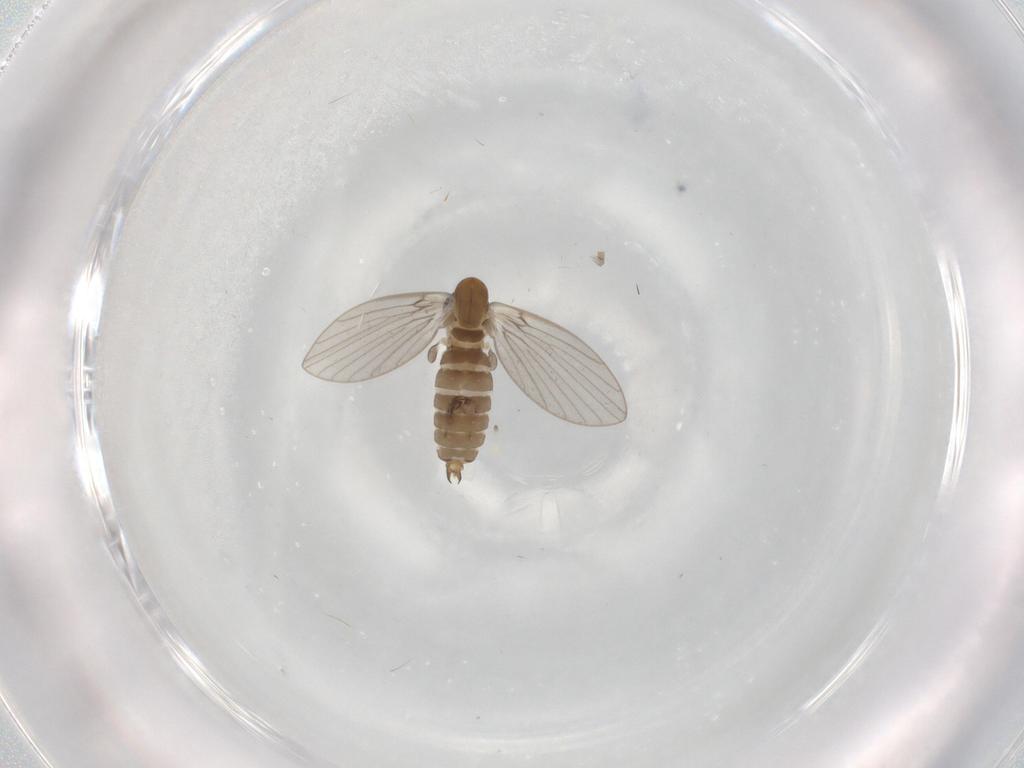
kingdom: Animalia
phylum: Arthropoda
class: Insecta
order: Diptera
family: Psychodidae
